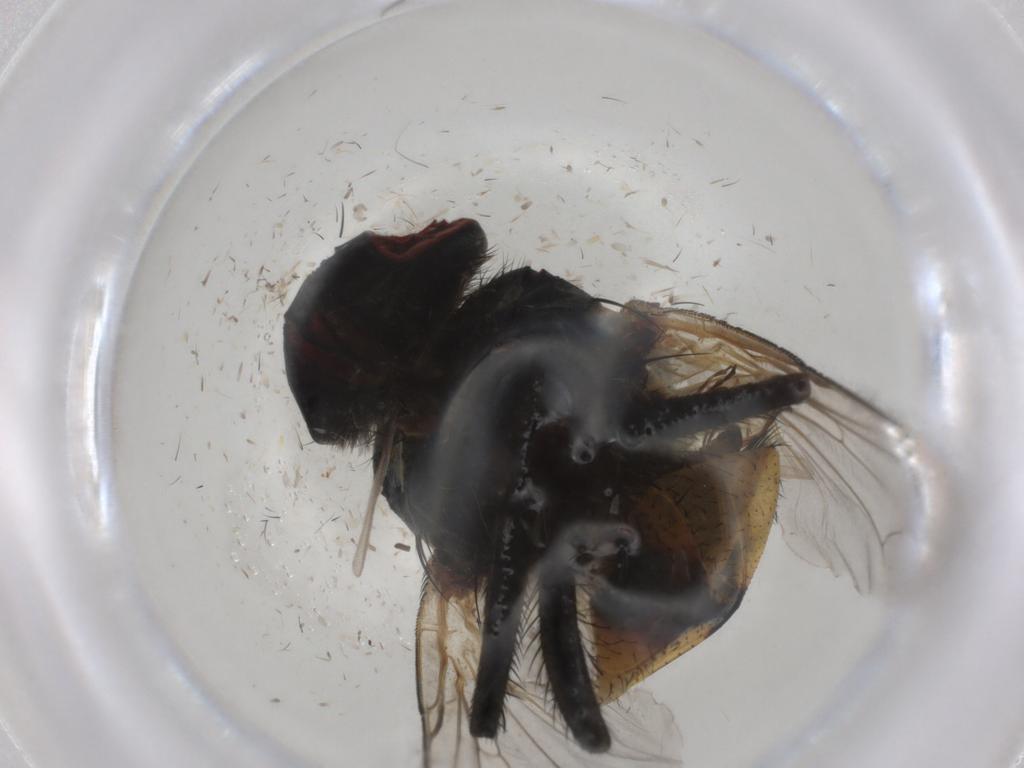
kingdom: Animalia
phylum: Arthropoda
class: Insecta
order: Diptera
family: Glossinidae
